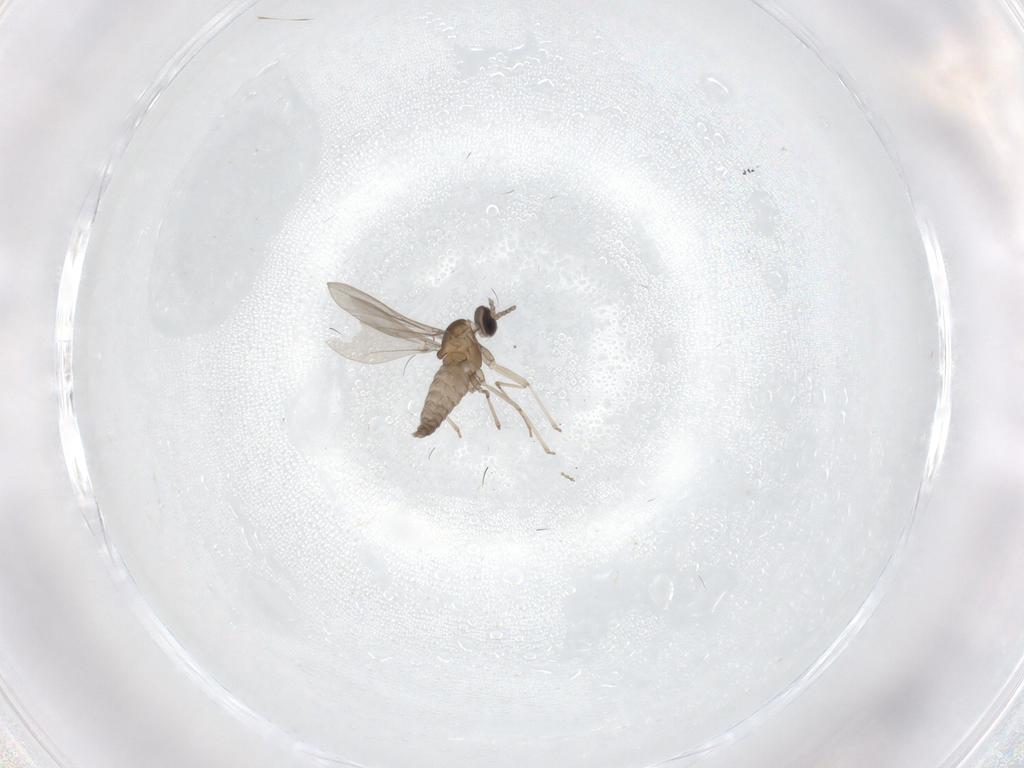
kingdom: Animalia
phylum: Arthropoda
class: Insecta
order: Diptera
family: Cecidomyiidae
